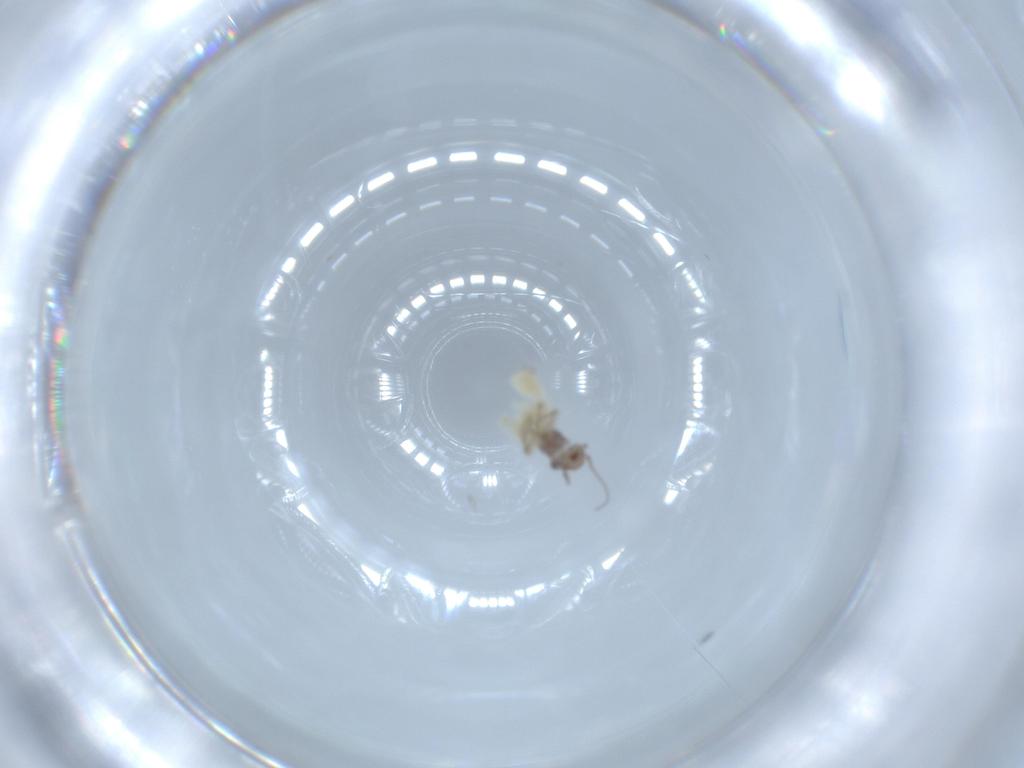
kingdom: Animalia
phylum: Arthropoda
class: Insecta
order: Psocodea
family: Lepidopsocidae
